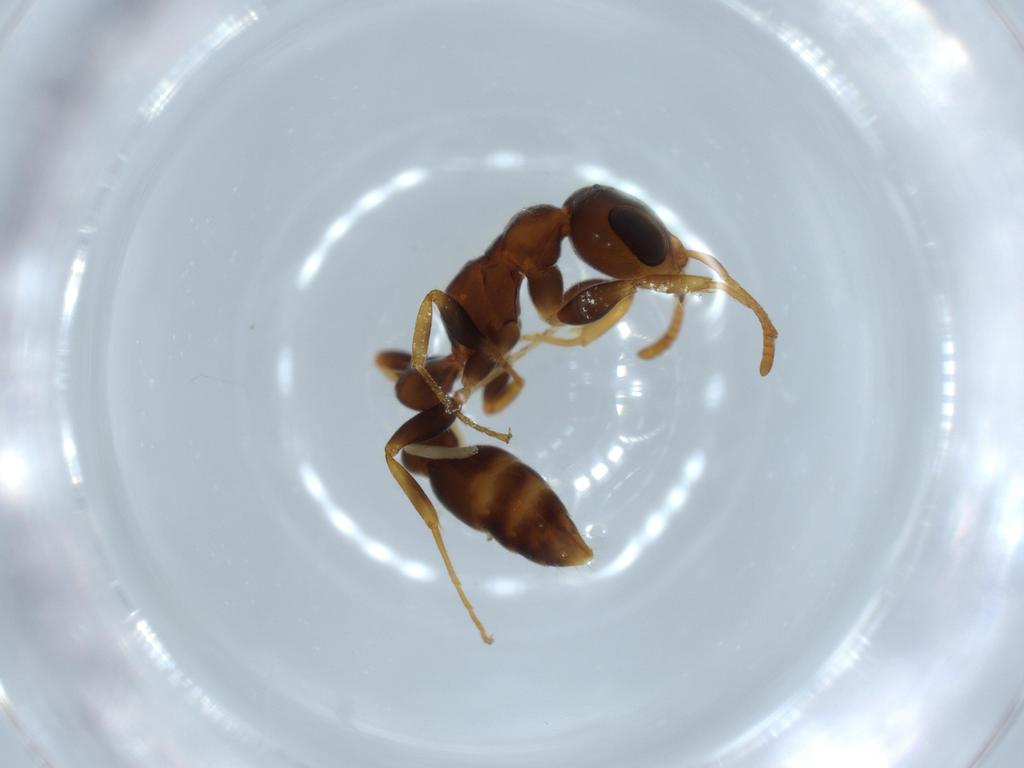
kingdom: Animalia
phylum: Arthropoda
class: Insecta
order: Hymenoptera
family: Formicidae
